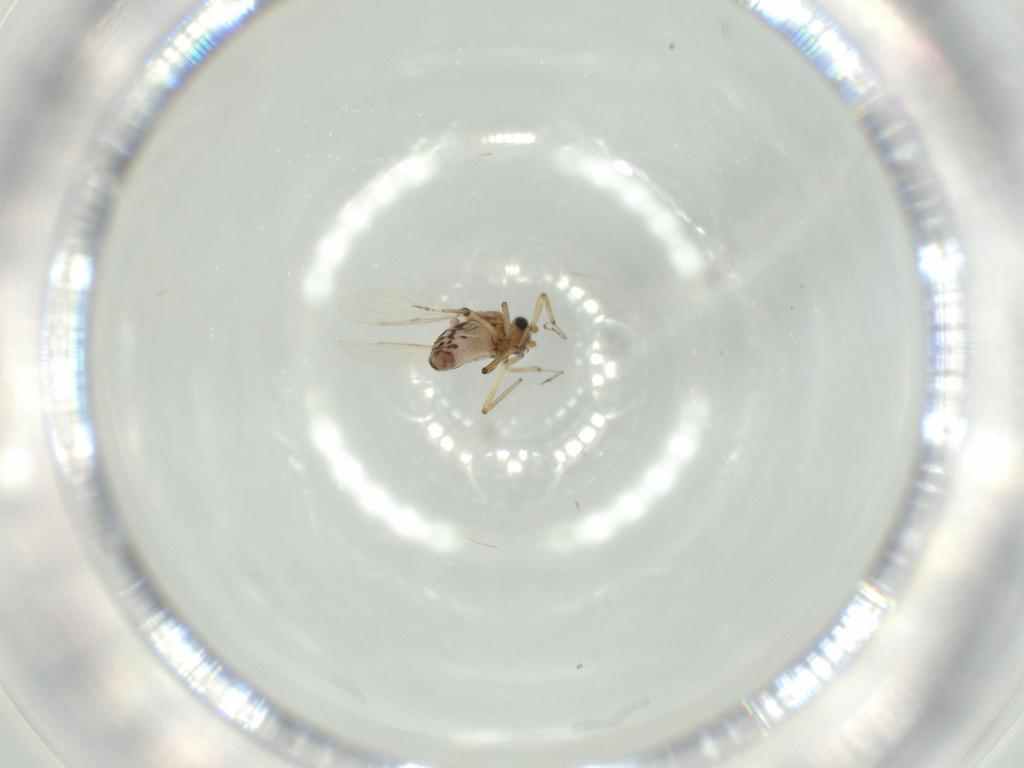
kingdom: Animalia
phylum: Arthropoda
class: Insecta
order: Diptera
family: Ceratopogonidae
